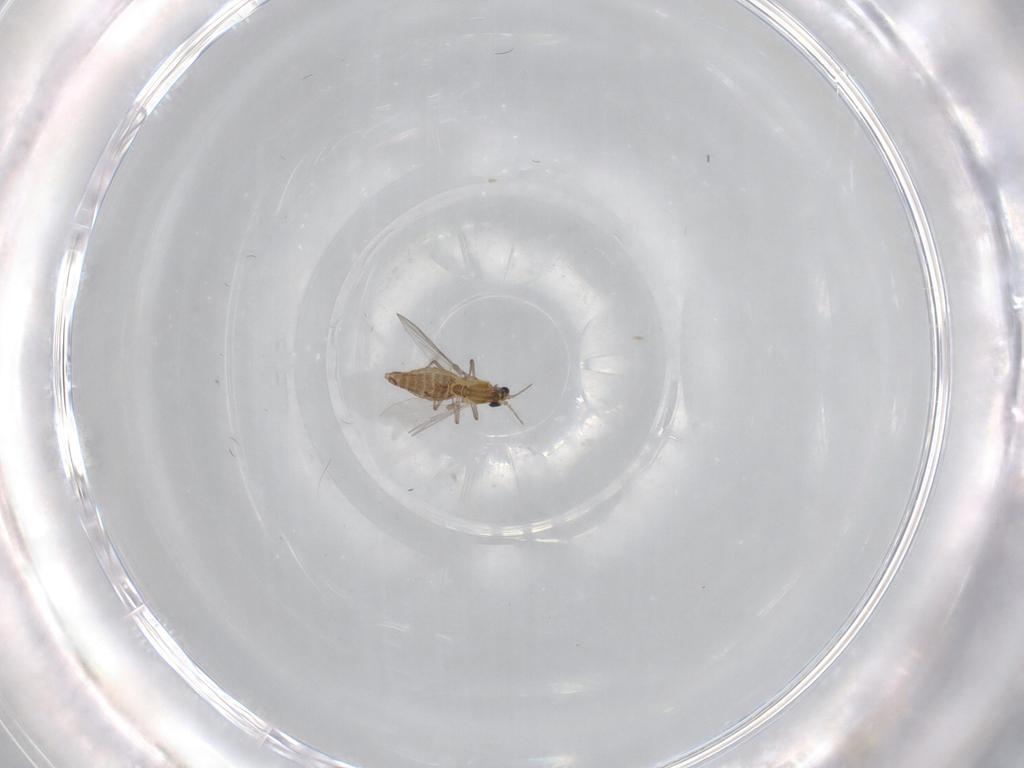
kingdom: Animalia
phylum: Arthropoda
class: Insecta
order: Diptera
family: Chironomidae
